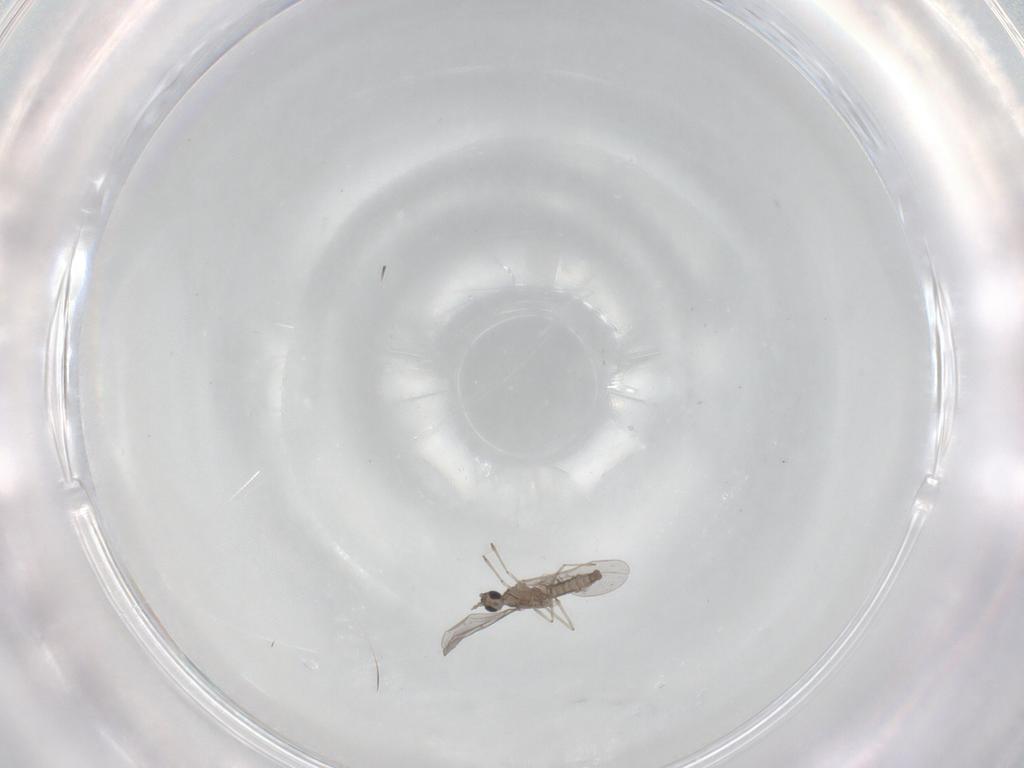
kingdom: Animalia
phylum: Arthropoda
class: Insecta
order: Diptera
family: Cecidomyiidae
